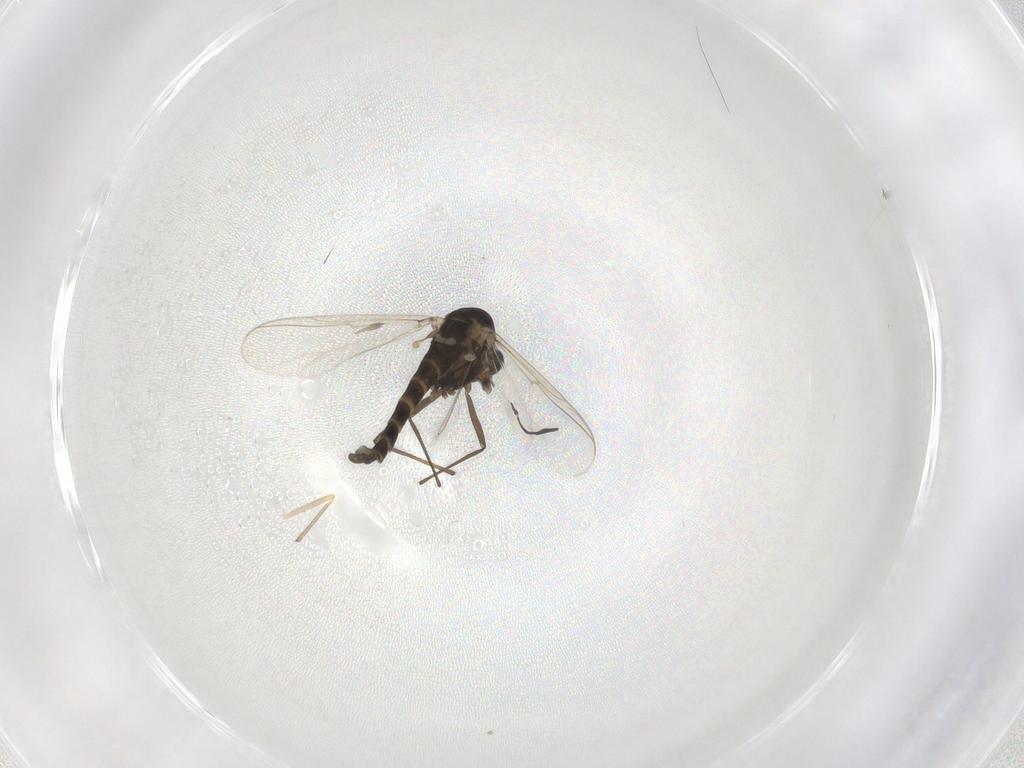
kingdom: Animalia
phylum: Arthropoda
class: Insecta
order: Diptera
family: Chironomidae
